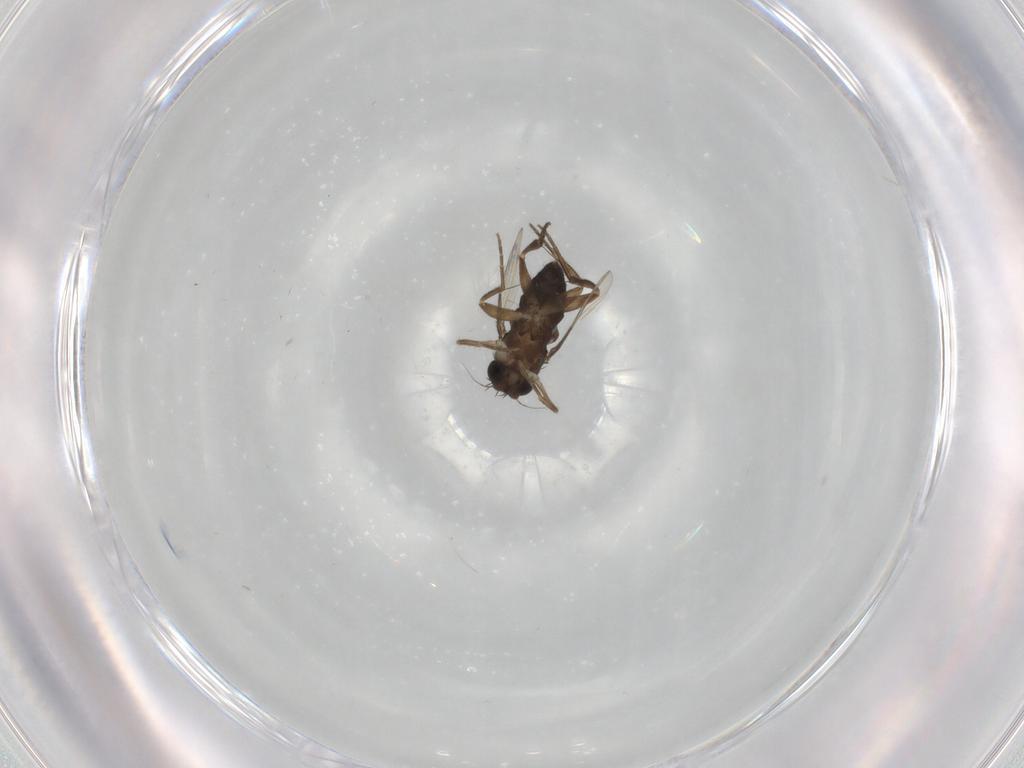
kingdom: Animalia
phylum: Arthropoda
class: Insecta
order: Diptera
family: Phoridae
